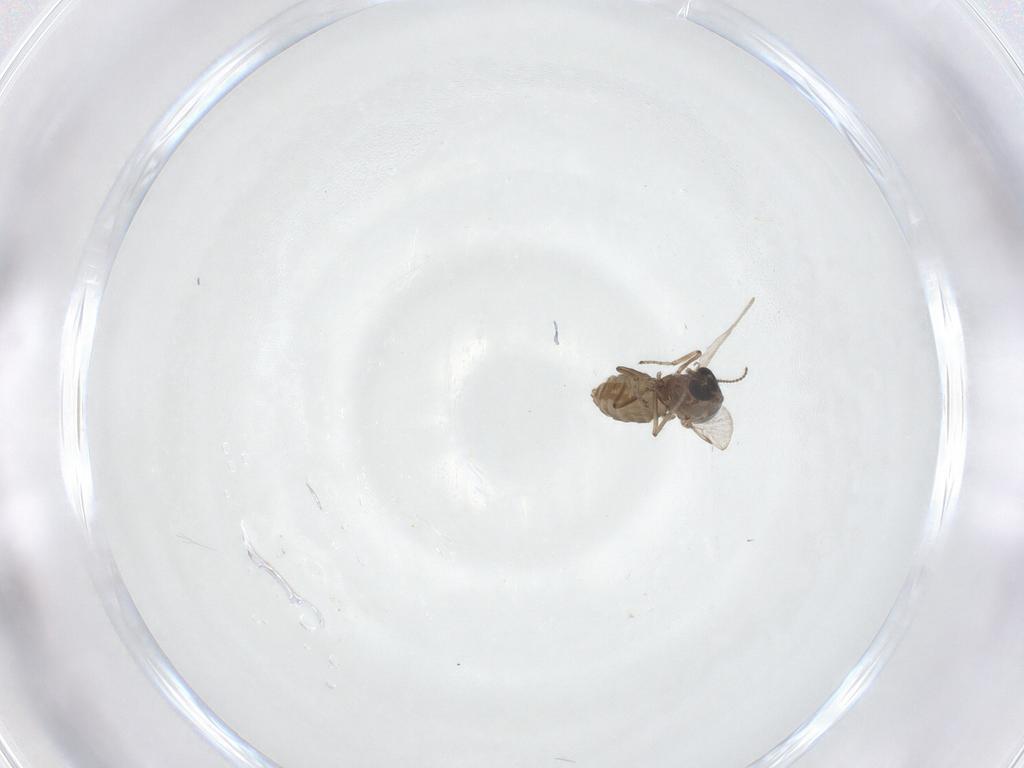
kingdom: Animalia
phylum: Arthropoda
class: Insecta
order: Diptera
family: Ceratopogonidae
